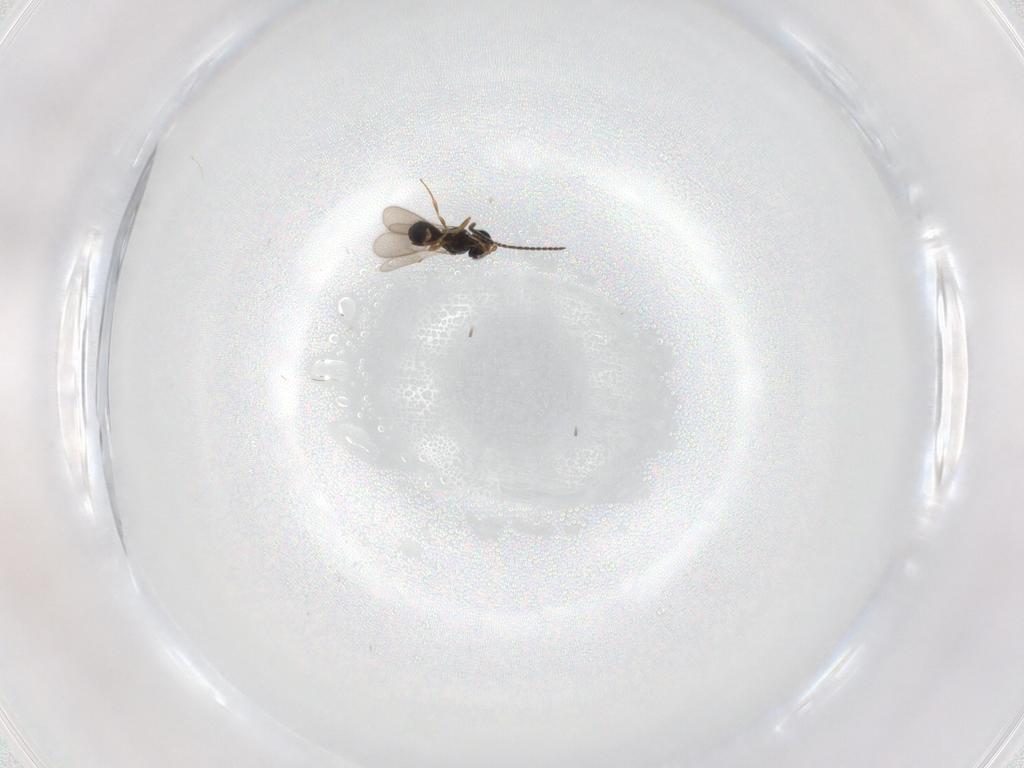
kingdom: Animalia
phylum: Arthropoda
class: Insecta
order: Hymenoptera
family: Scelionidae
